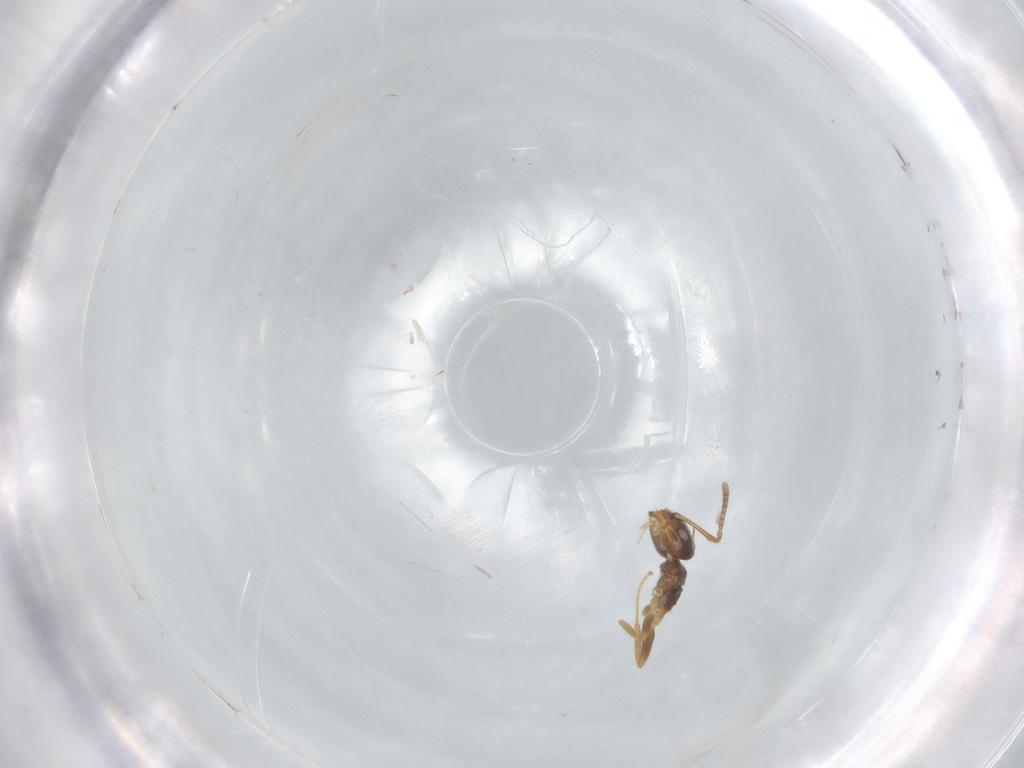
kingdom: Animalia
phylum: Arthropoda
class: Insecta
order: Hymenoptera
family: Formicidae
